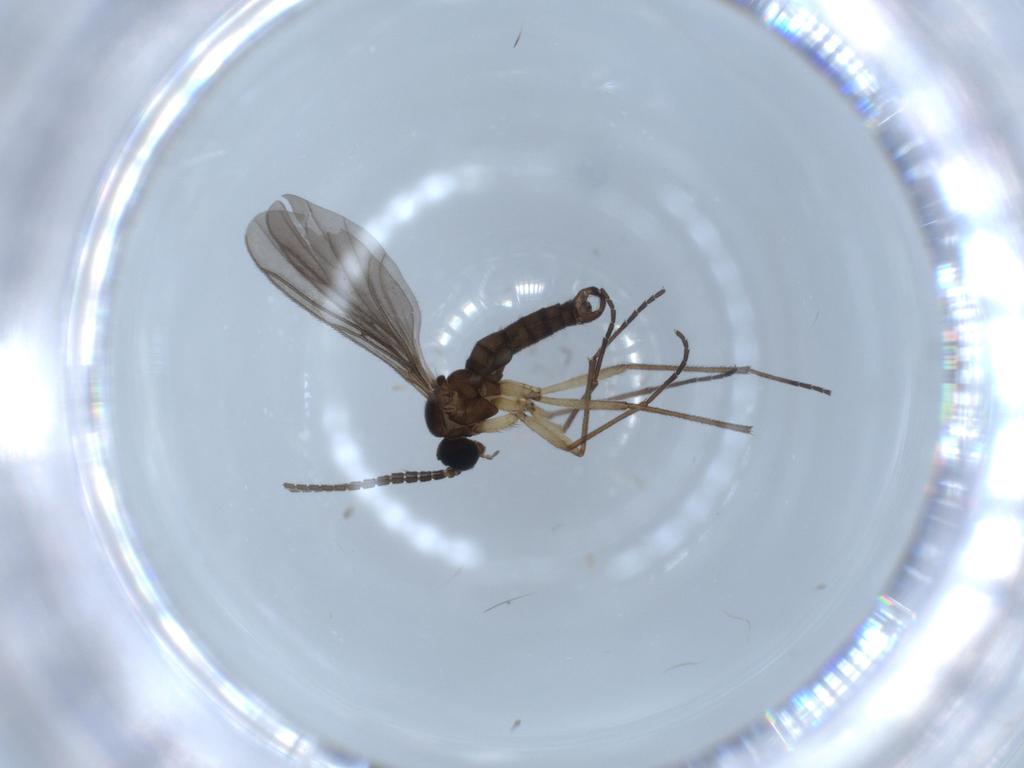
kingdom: Animalia
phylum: Arthropoda
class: Insecta
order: Diptera
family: Sciaridae
